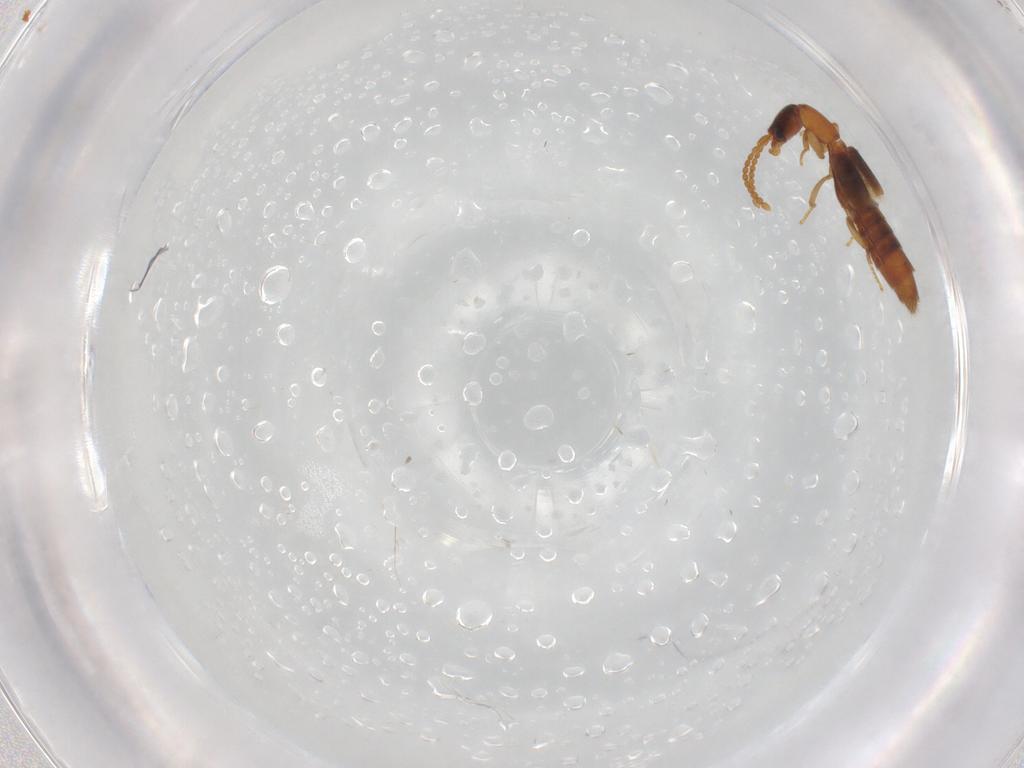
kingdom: Animalia
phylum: Arthropoda
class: Insecta
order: Coleoptera
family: Staphylinidae
